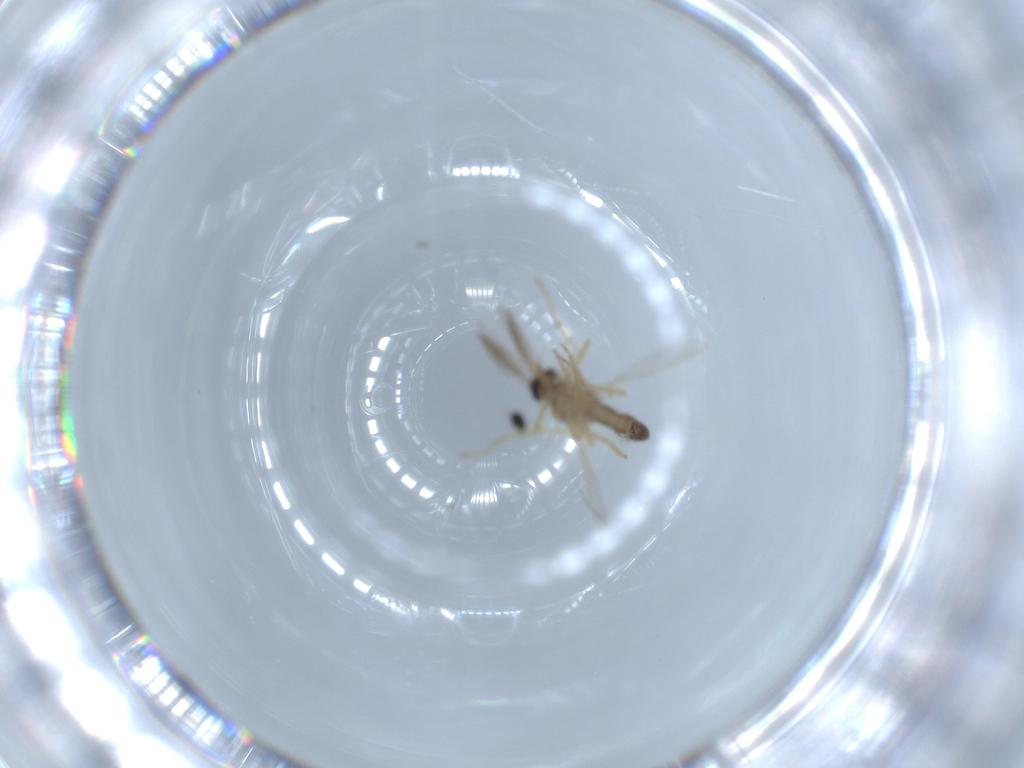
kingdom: Animalia
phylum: Arthropoda
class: Insecta
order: Diptera
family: Ceratopogonidae
